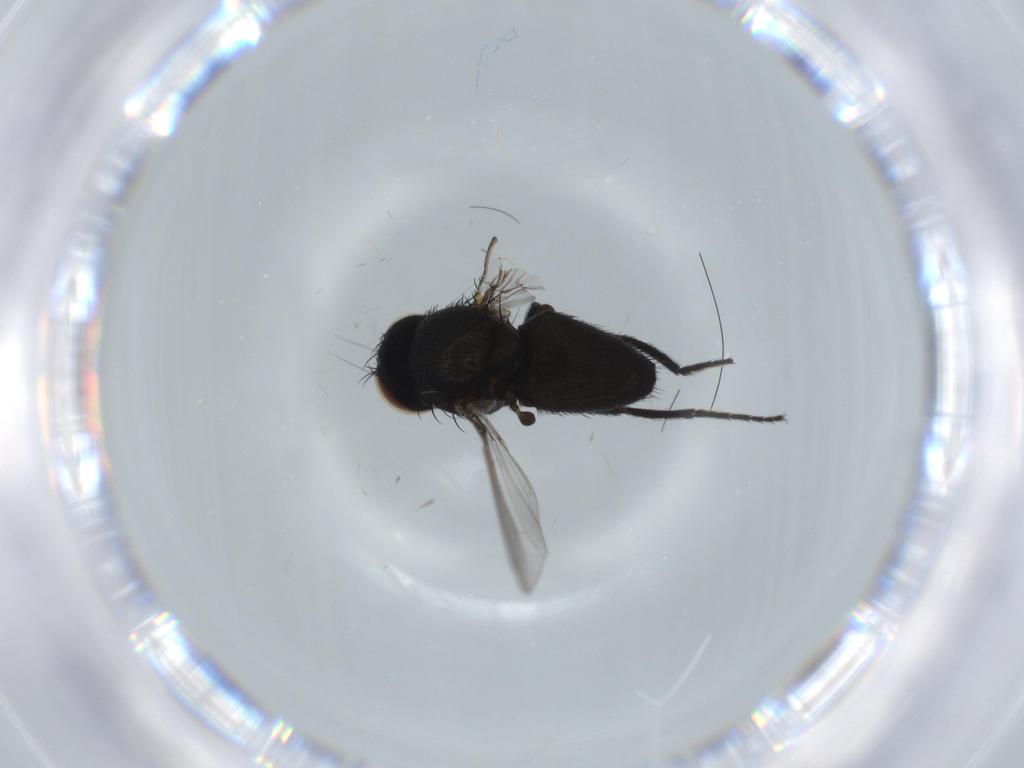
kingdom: Animalia
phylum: Arthropoda
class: Insecta
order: Diptera
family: Milichiidae
